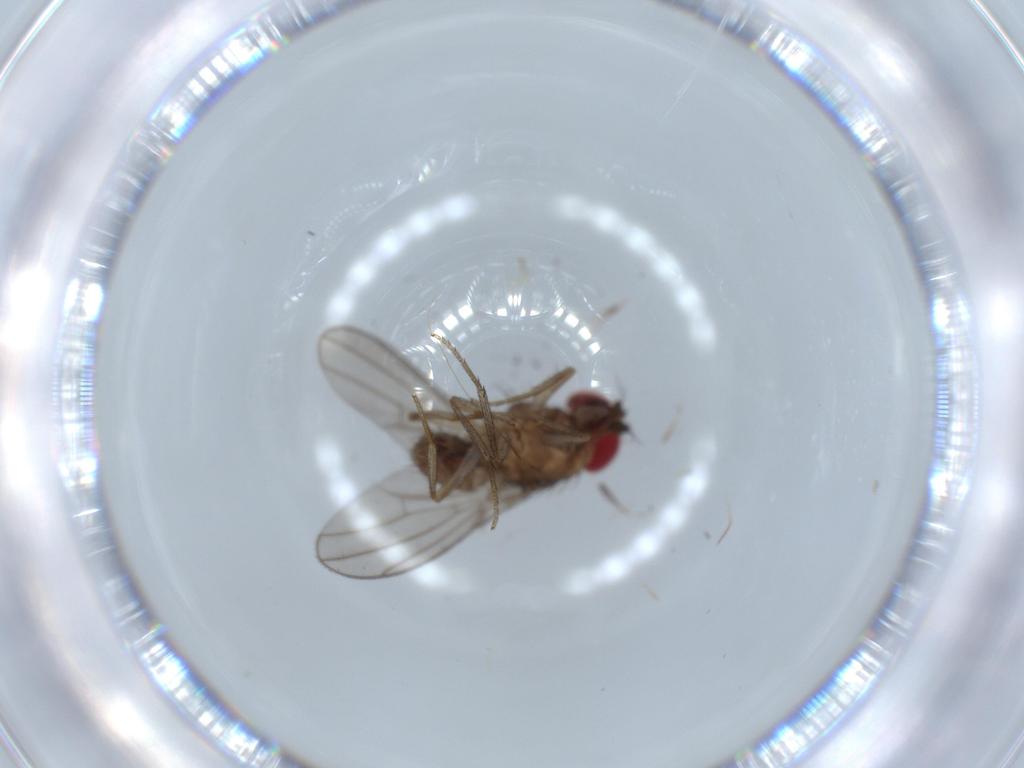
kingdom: Animalia
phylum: Arthropoda
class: Insecta
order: Diptera
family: Drosophilidae
